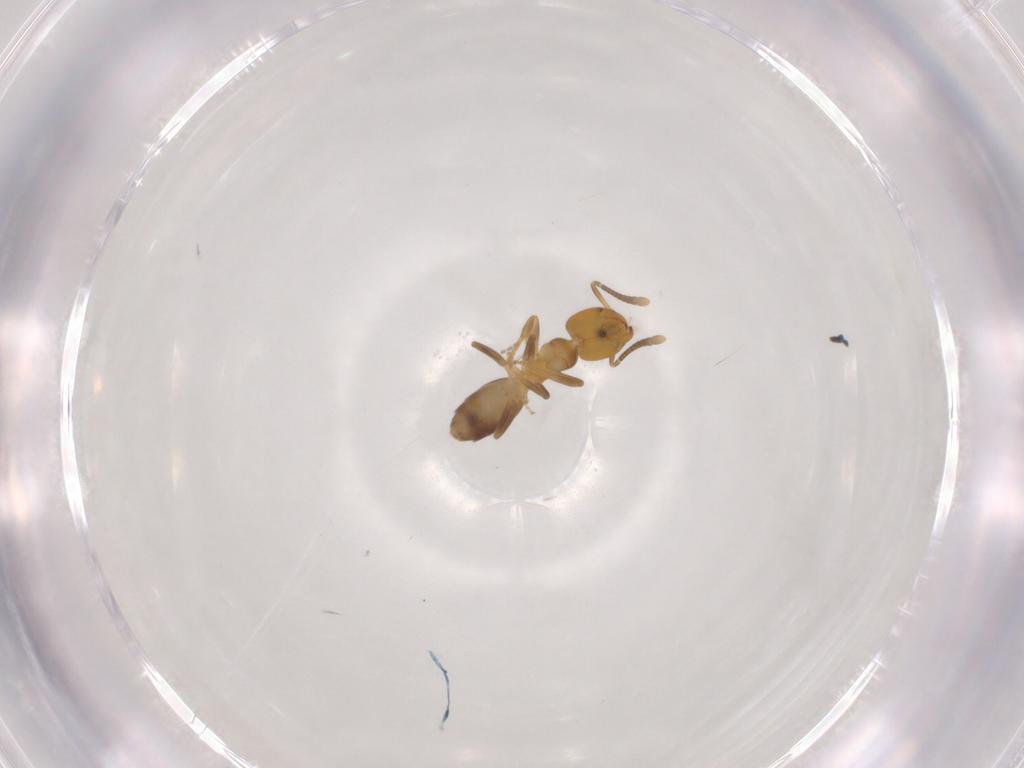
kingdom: Animalia
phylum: Arthropoda
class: Insecta
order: Hymenoptera
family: Formicidae
